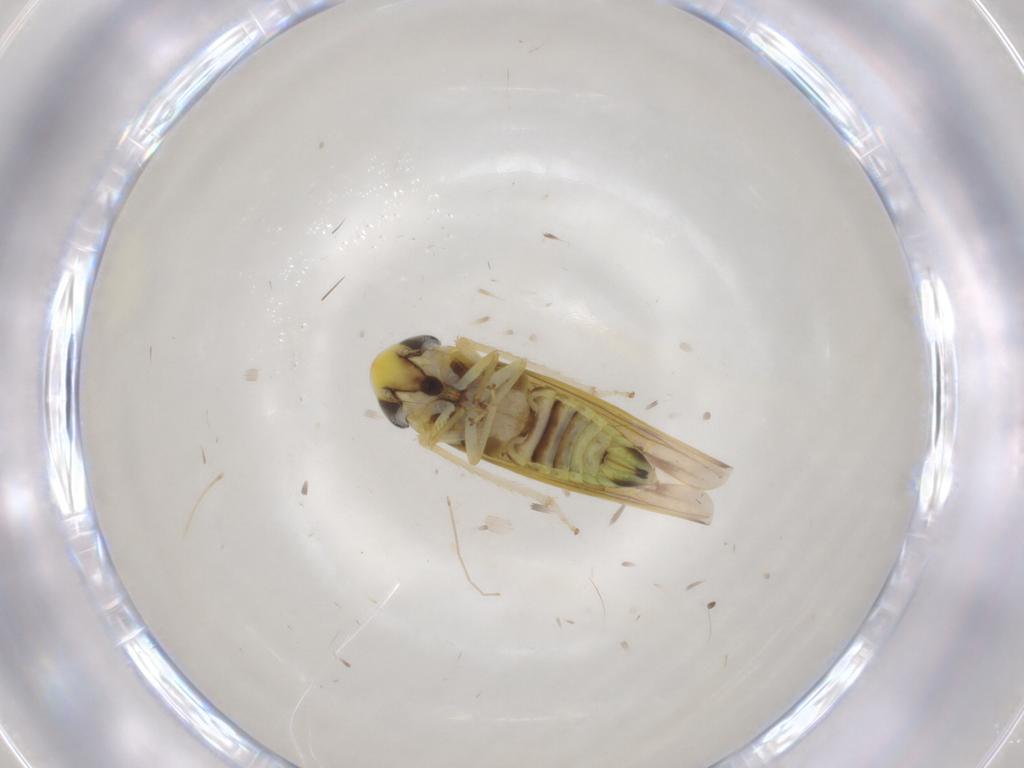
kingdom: Animalia
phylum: Arthropoda
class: Insecta
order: Hemiptera
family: Cicadellidae
